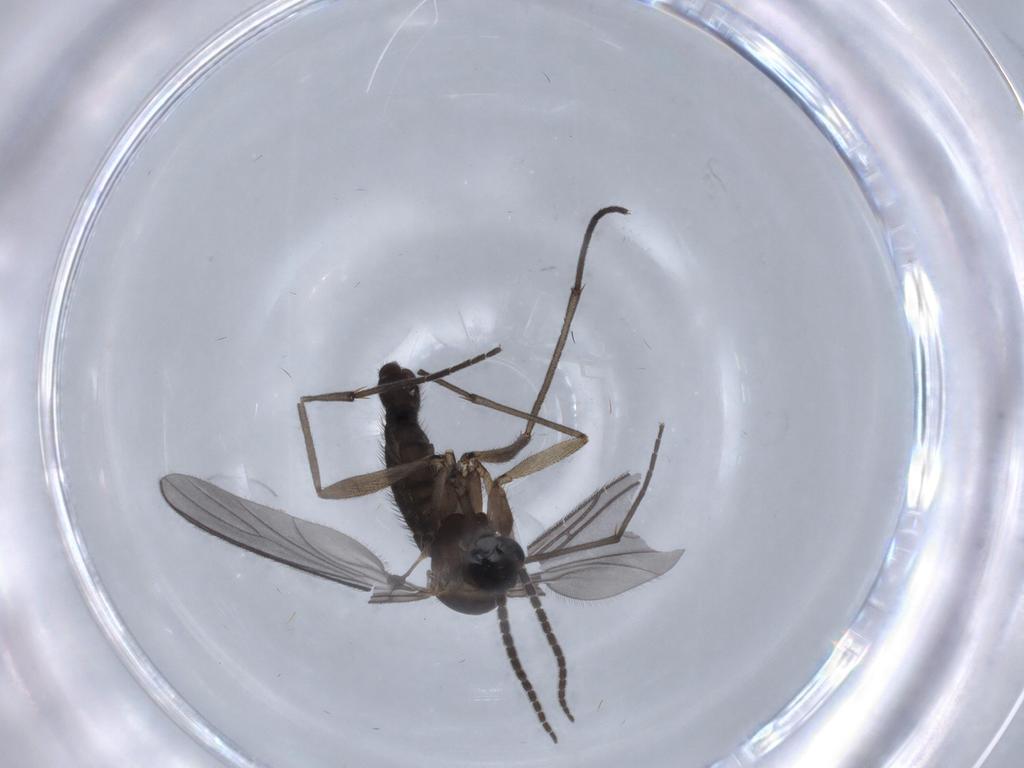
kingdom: Animalia
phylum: Arthropoda
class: Insecta
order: Diptera
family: Sciaridae
